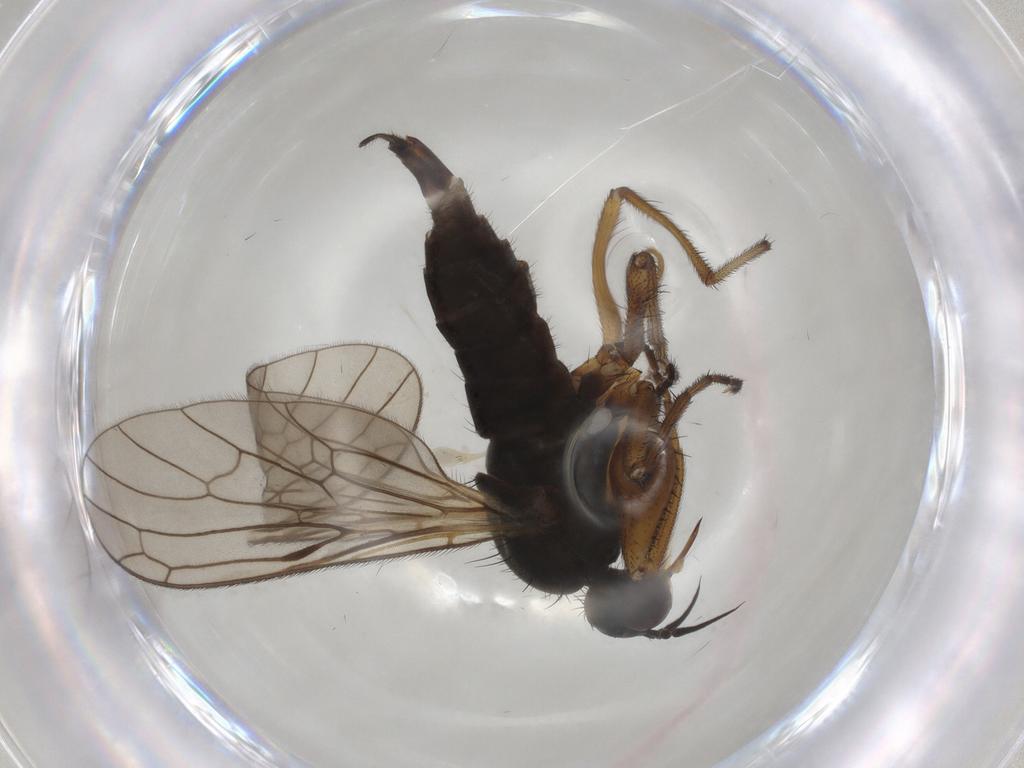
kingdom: Animalia
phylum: Arthropoda
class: Insecta
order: Diptera
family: Empididae
